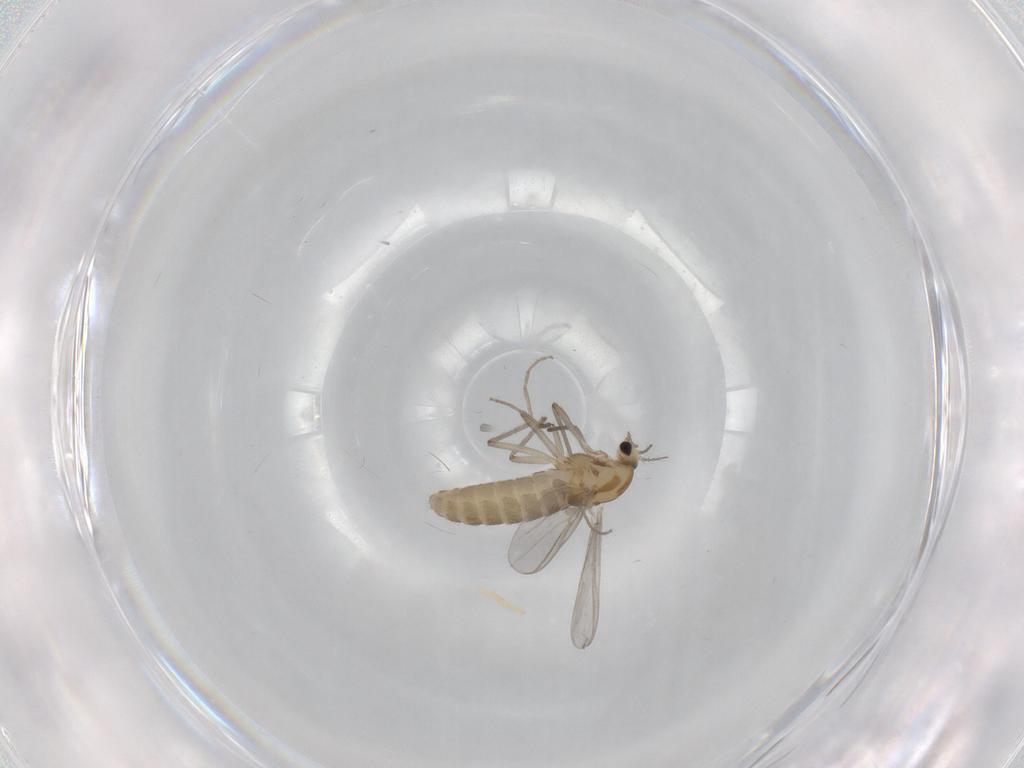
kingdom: Animalia
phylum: Arthropoda
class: Insecta
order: Diptera
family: Chironomidae
